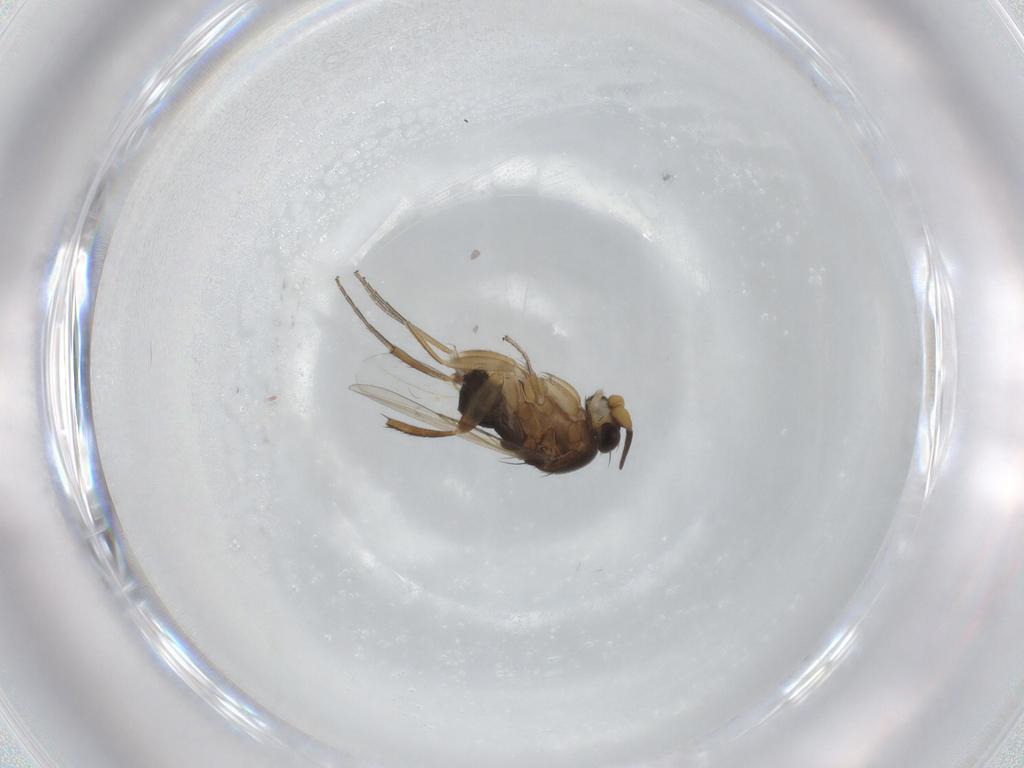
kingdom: Animalia
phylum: Arthropoda
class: Insecta
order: Diptera
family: Phoridae
